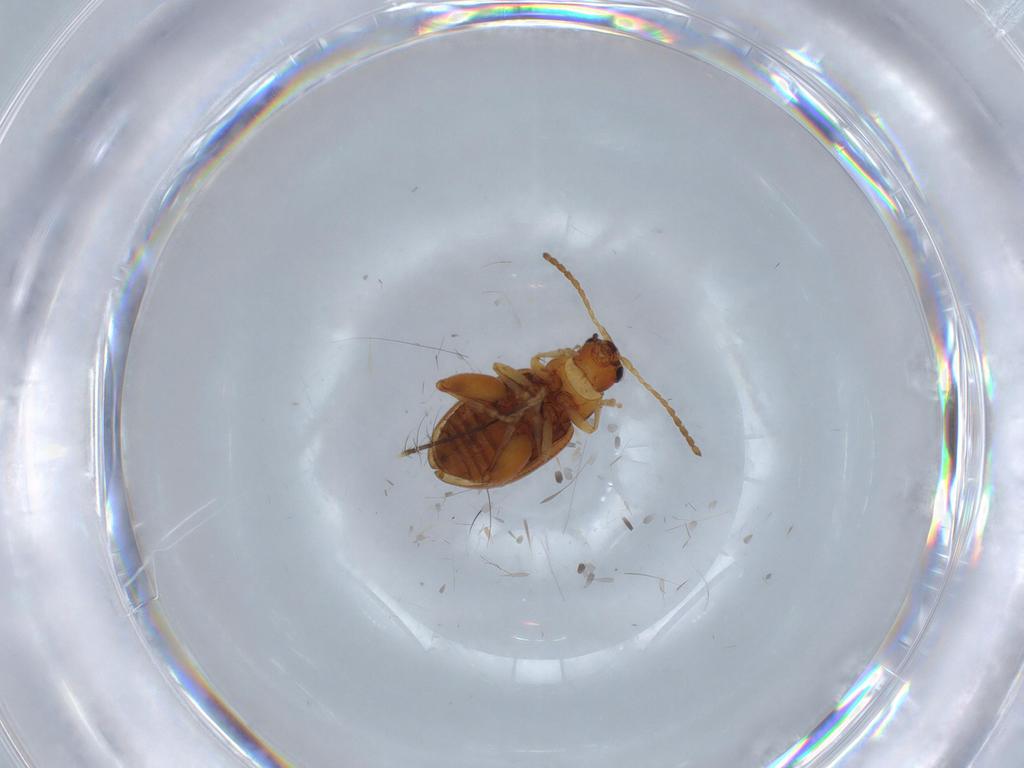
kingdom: Animalia
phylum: Arthropoda
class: Insecta
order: Coleoptera
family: Chrysomelidae
